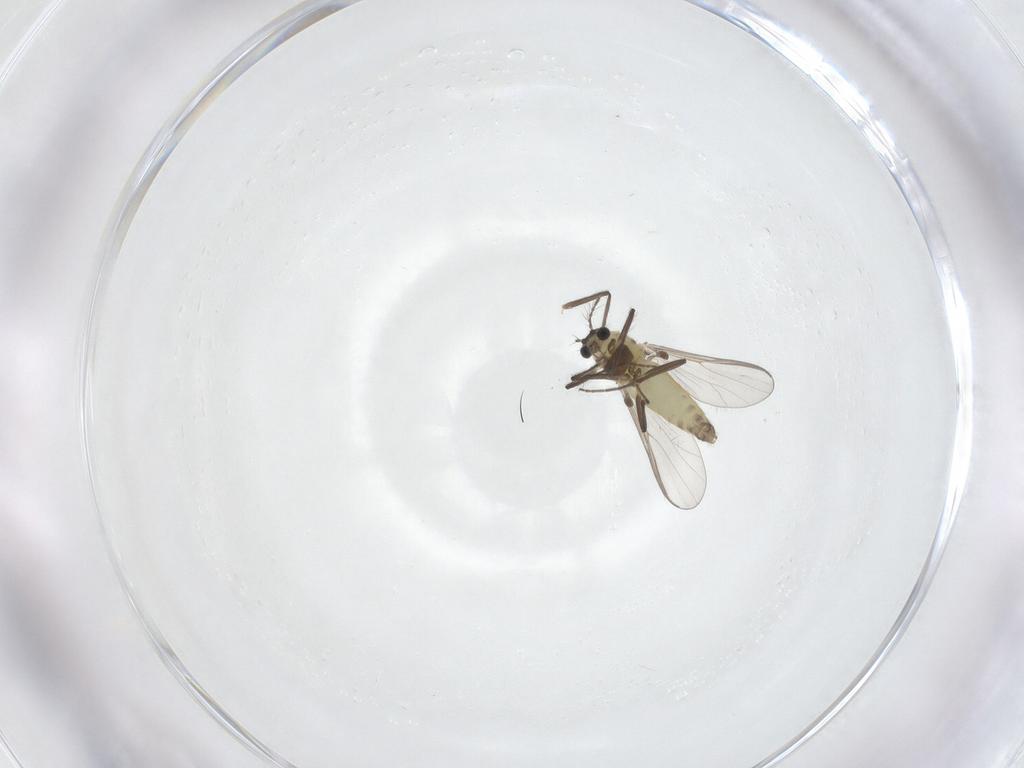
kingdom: Animalia
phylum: Arthropoda
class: Insecta
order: Diptera
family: Chironomidae
